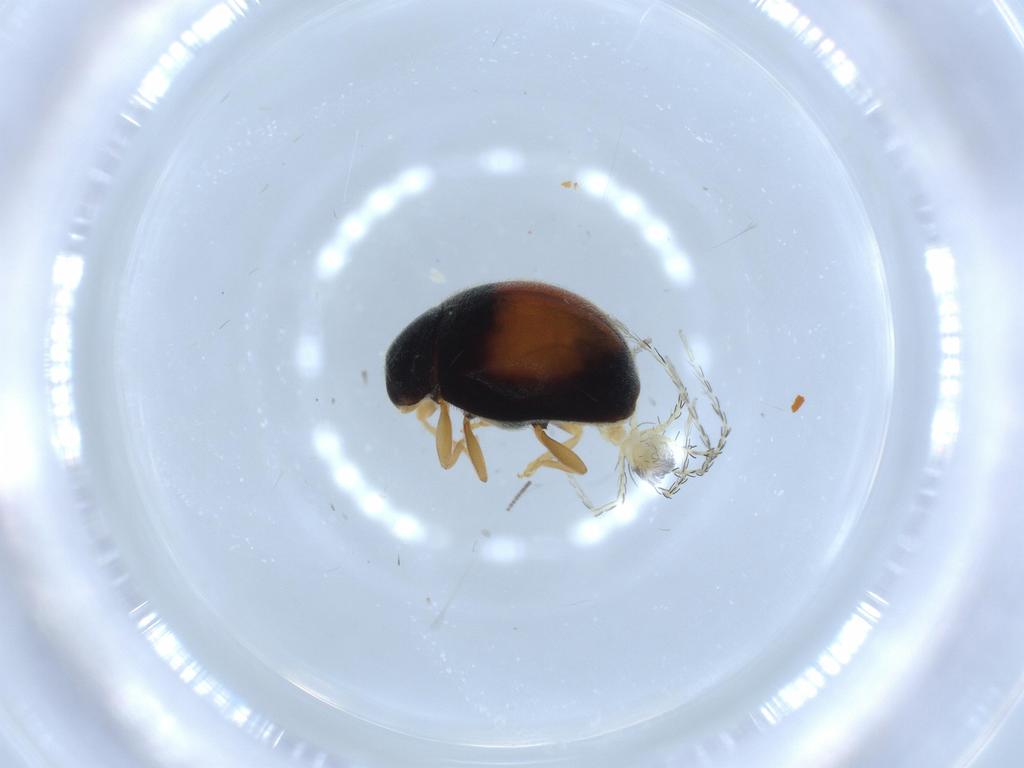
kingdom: Animalia
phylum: Arthropoda
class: Insecta
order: Coleoptera
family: Coccinellidae
